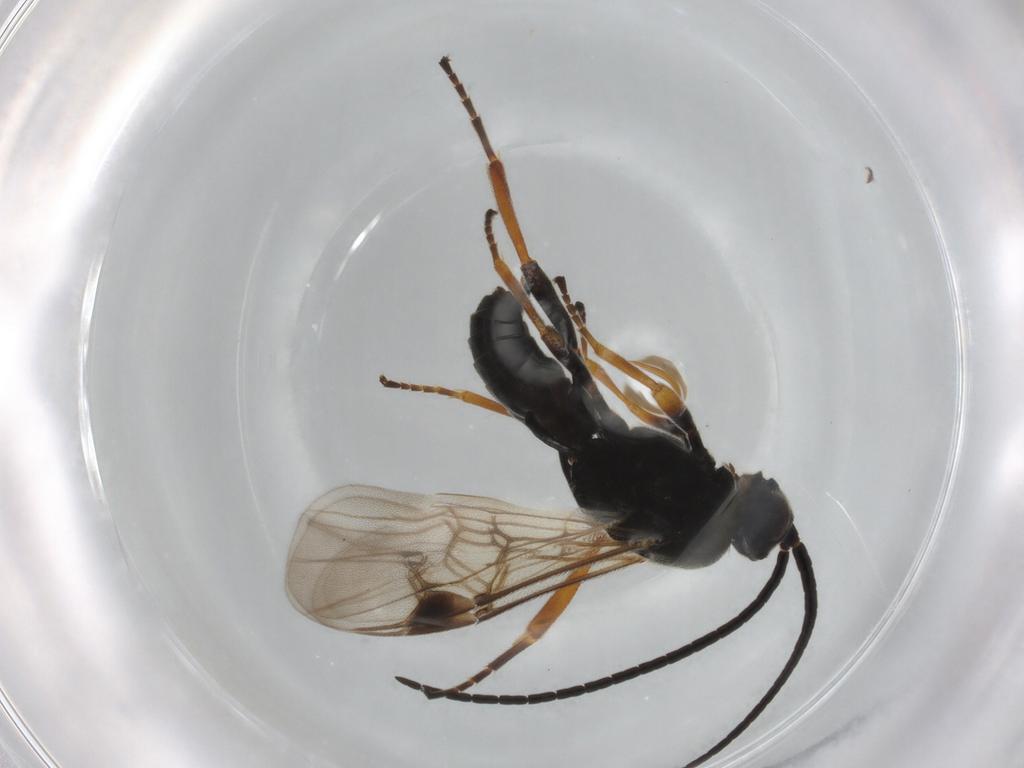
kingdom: Animalia
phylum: Arthropoda
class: Insecta
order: Hymenoptera
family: Braconidae
